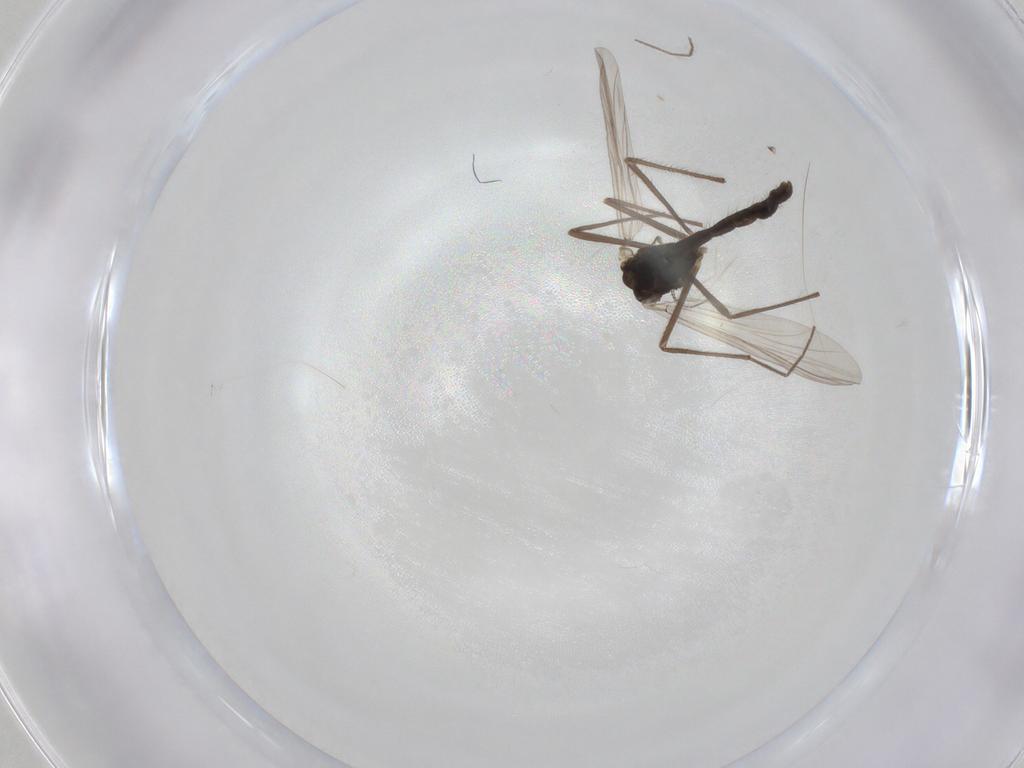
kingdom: Animalia
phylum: Arthropoda
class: Insecta
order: Diptera
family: Chironomidae
